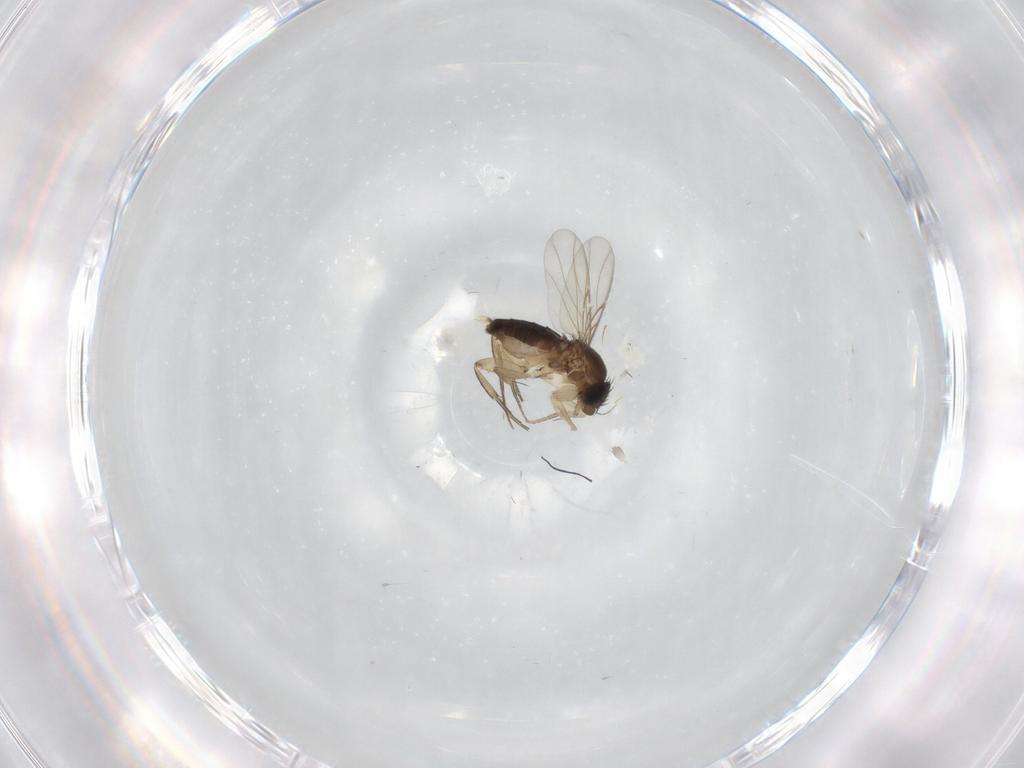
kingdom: Animalia
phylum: Arthropoda
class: Insecta
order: Diptera
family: Phoridae
